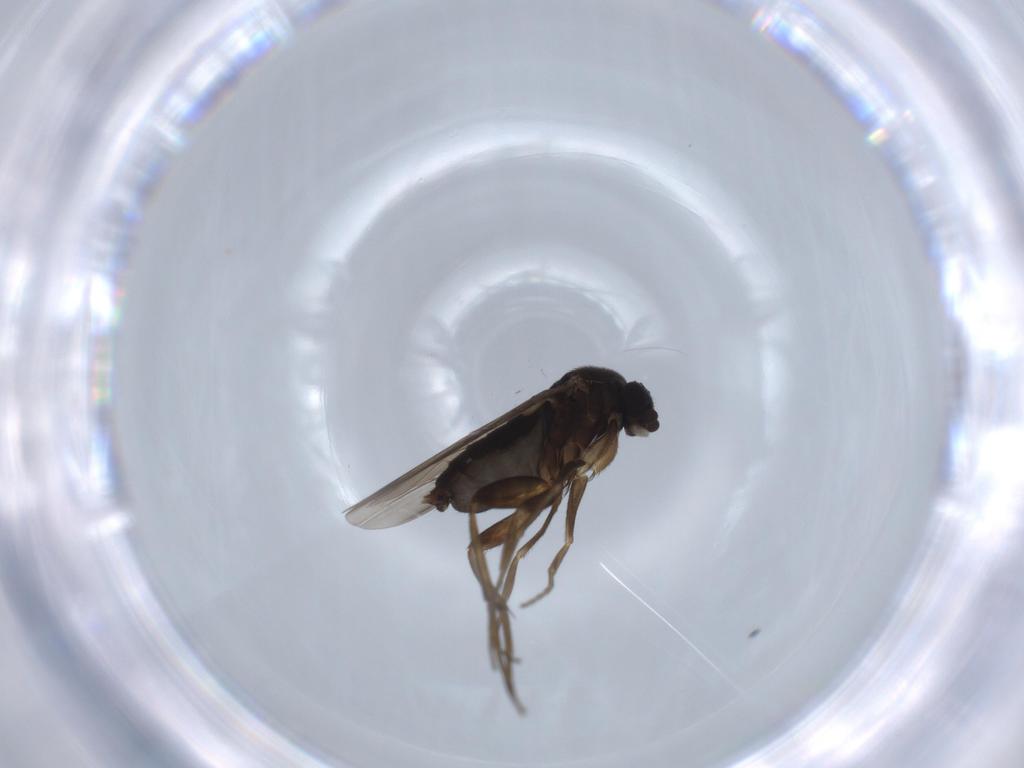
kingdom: Animalia
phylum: Arthropoda
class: Insecta
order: Diptera
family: Phoridae
